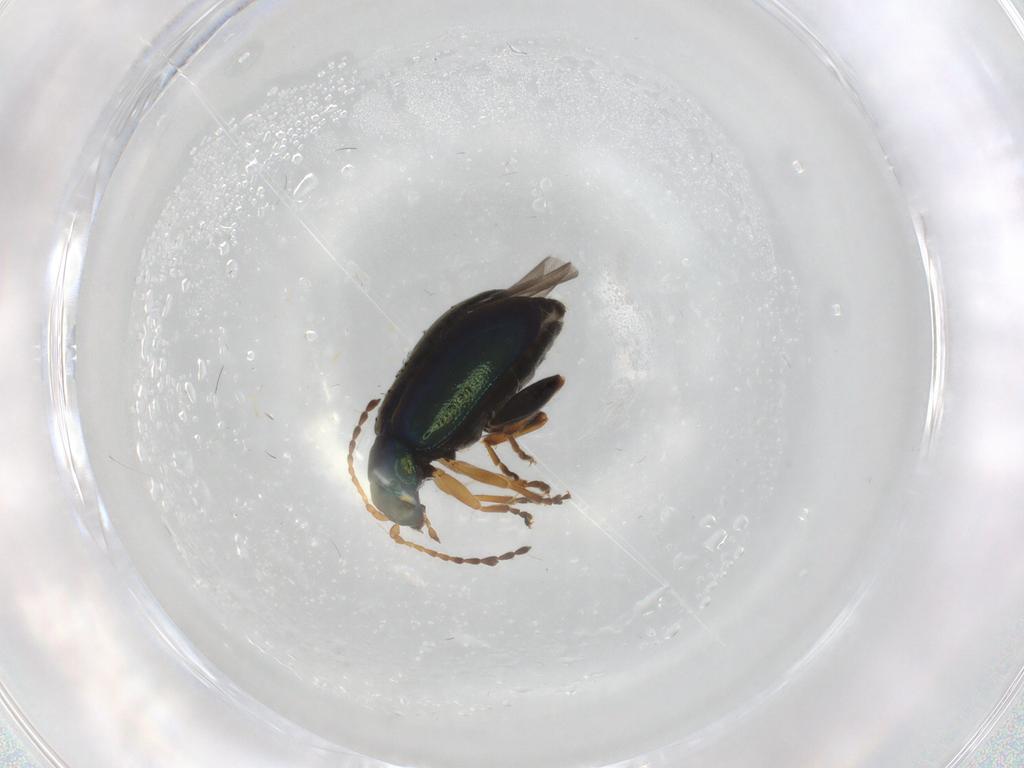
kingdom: Animalia
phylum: Arthropoda
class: Insecta
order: Coleoptera
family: Chrysomelidae
